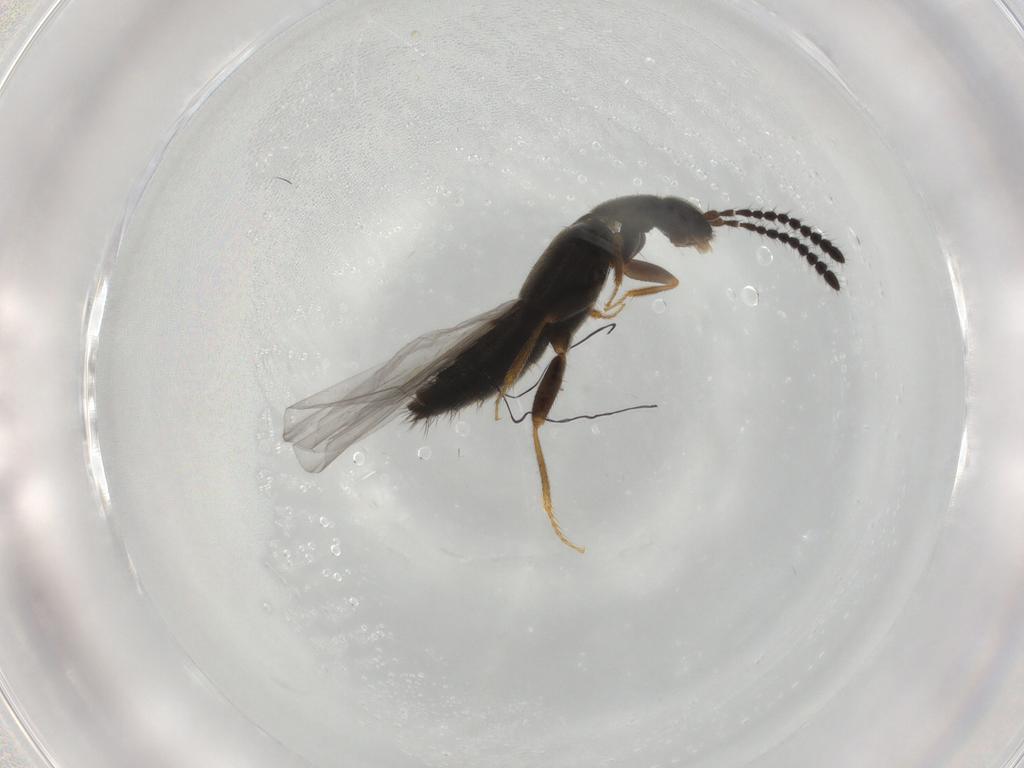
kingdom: Animalia
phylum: Arthropoda
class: Insecta
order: Coleoptera
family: Staphylinidae
